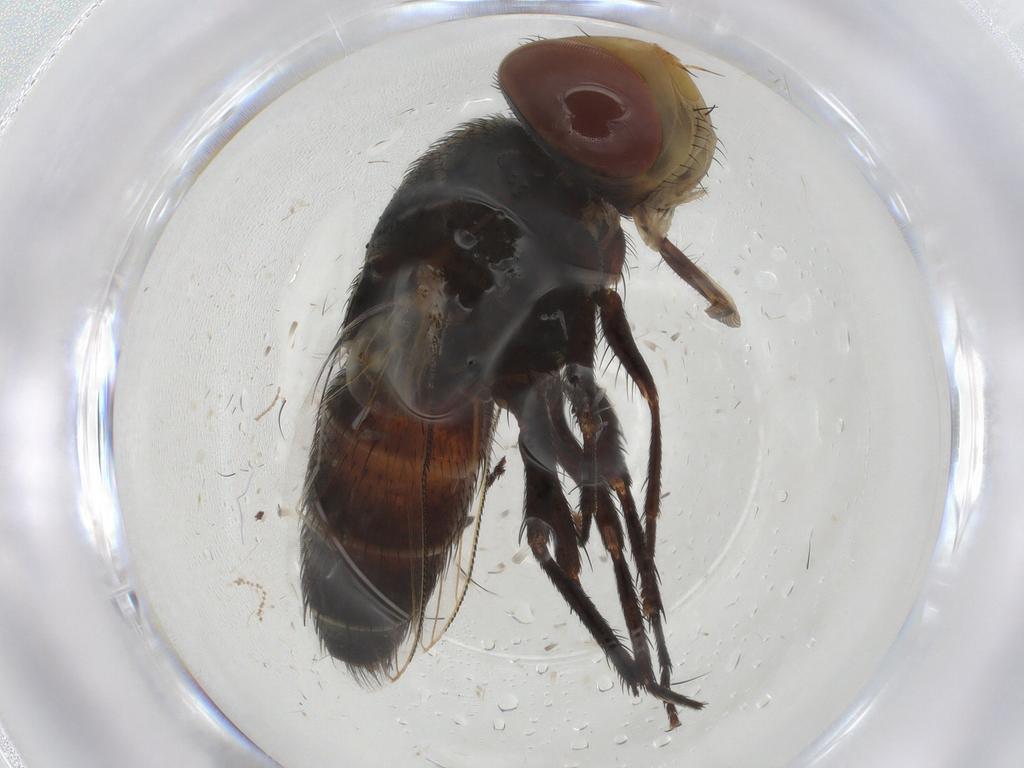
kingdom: Animalia
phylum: Arthropoda
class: Insecta
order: Diptera
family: Sarcophagidae
